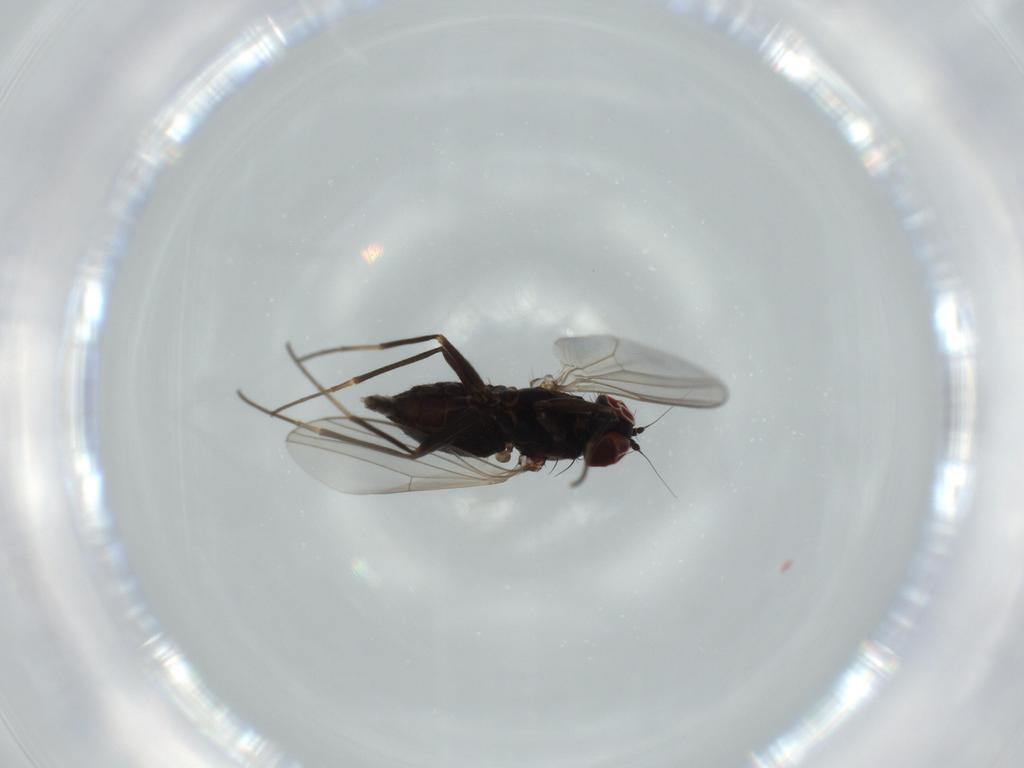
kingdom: Animalia
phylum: Arthropoda
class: Insecta
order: Diptera
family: Dolichopodidae
